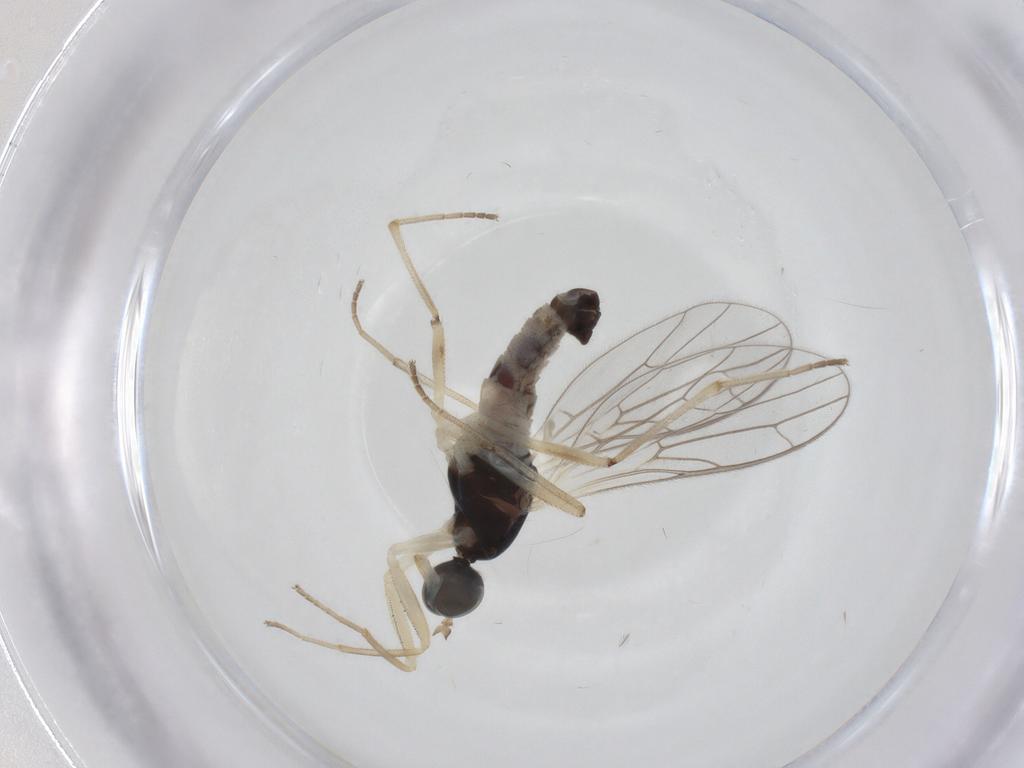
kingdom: Animalia
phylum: Arthropoda
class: Insecta
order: Diptera
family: Empididae
